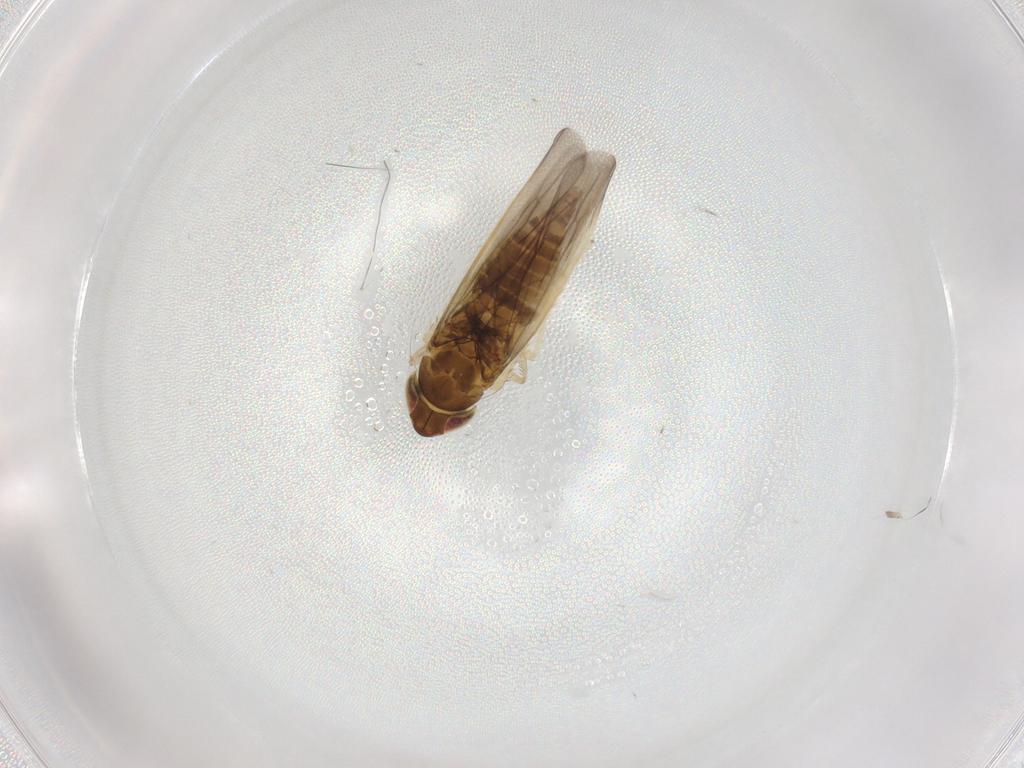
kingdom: Animalia
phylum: Arthropoda
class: Insecta
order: Hemiptera
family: Cicadellidae
